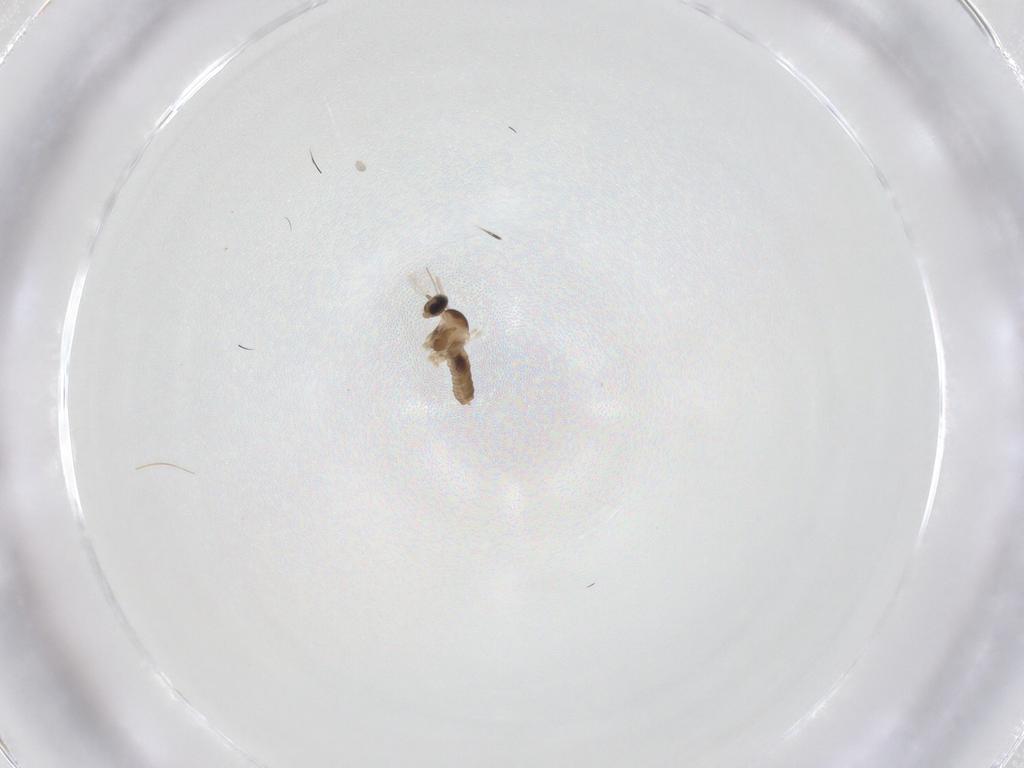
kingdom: Animalia
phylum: Arthropoda
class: Insecta
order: Diptera
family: Cecidomyiidae
